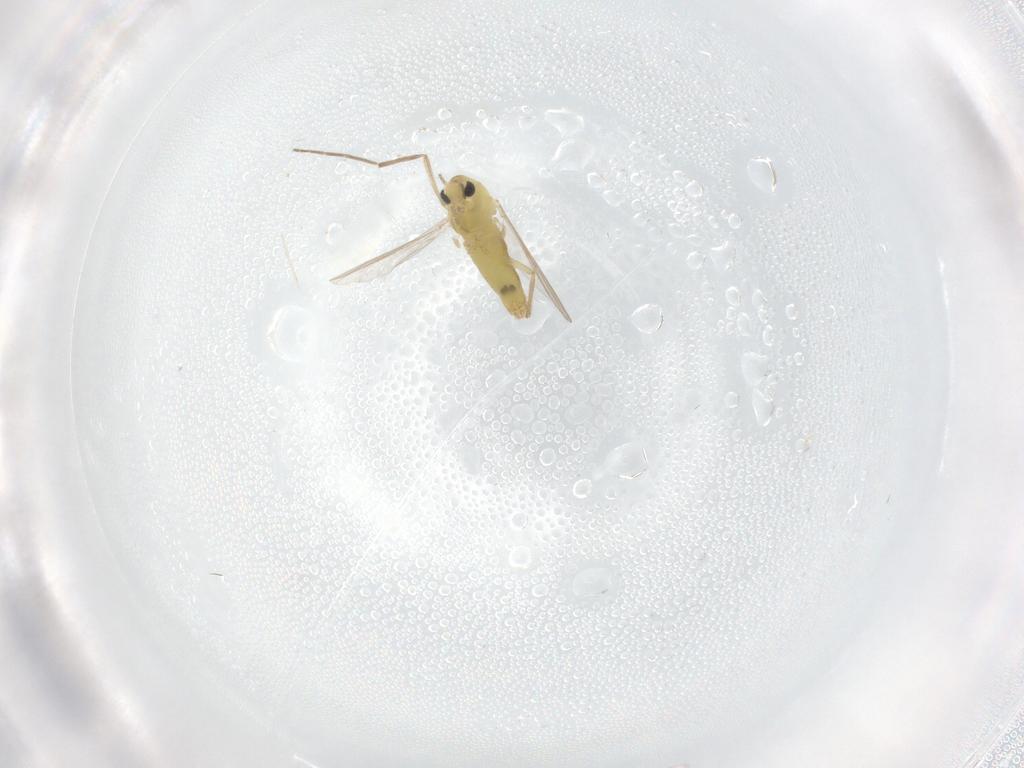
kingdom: Animalia
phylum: Arthropoda
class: Insecta
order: Diptera
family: Chironomidae
